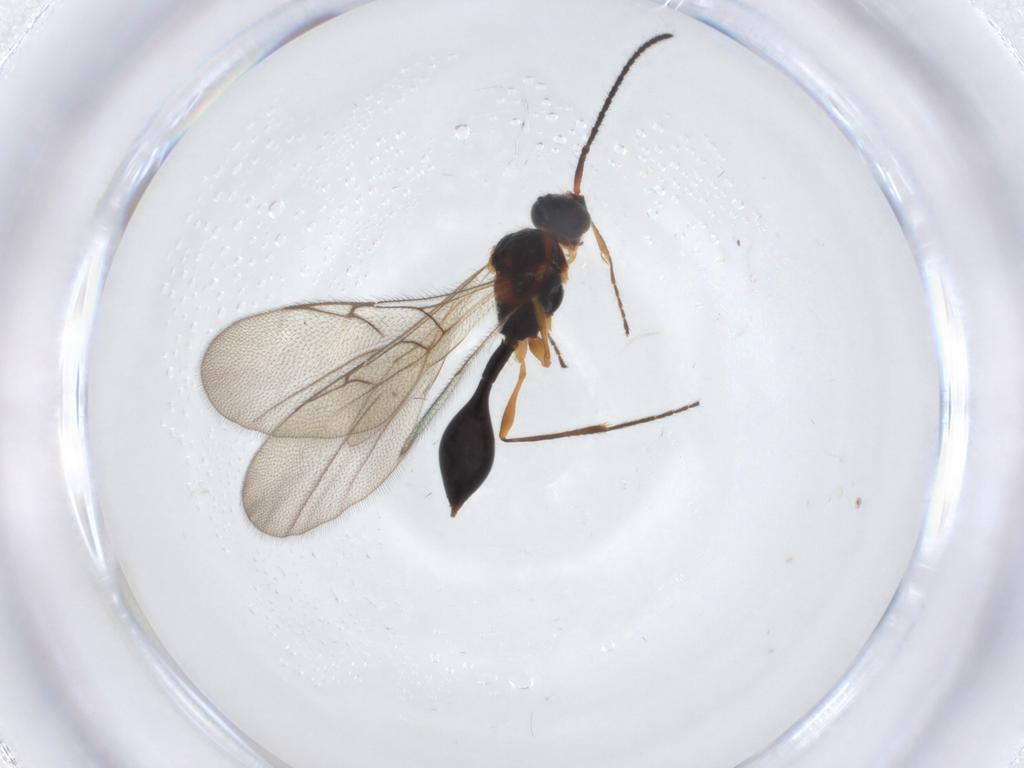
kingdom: Animalia
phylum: Arthropoda
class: Insecta
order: Hymenoptera
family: Diapriidae
